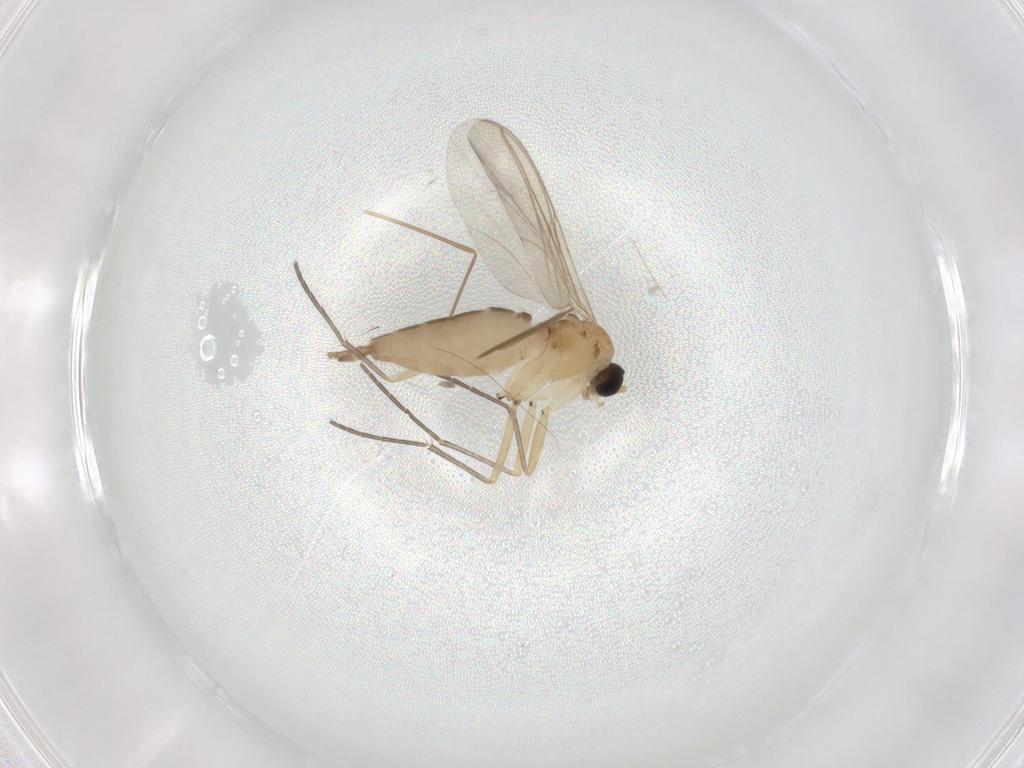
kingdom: Animalia
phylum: Arthropoda
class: Insecta
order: Diptera
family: Sciaridae
